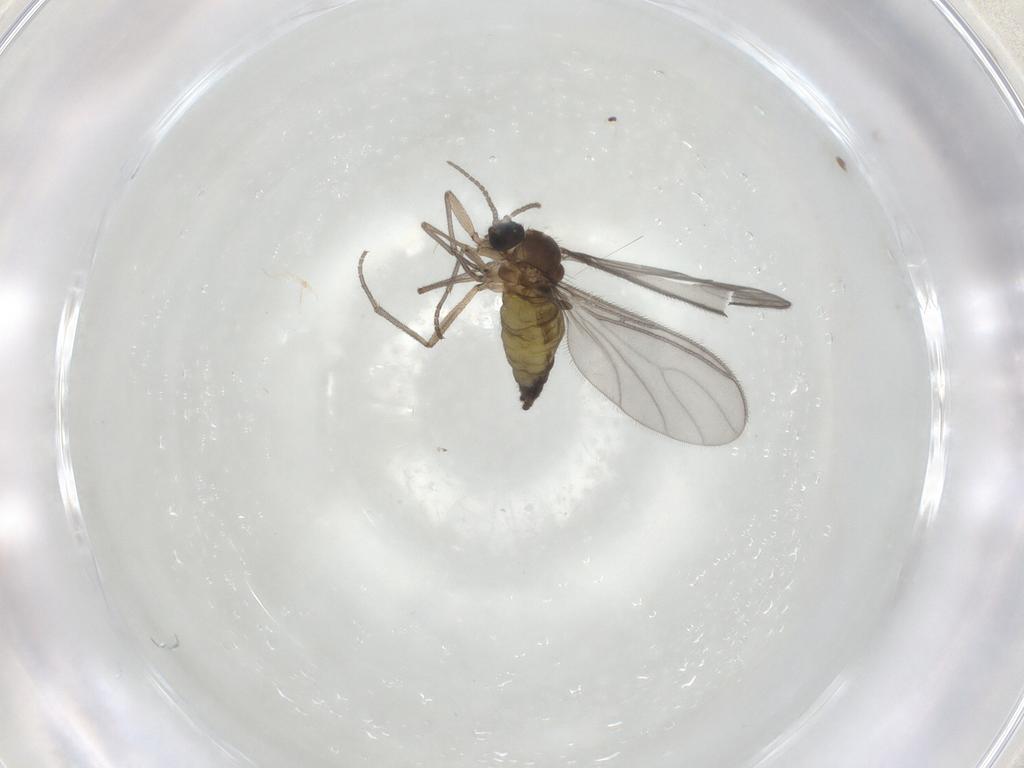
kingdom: Animalia
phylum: Arthropoda
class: Insecta
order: Diptera
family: Sciaridae
